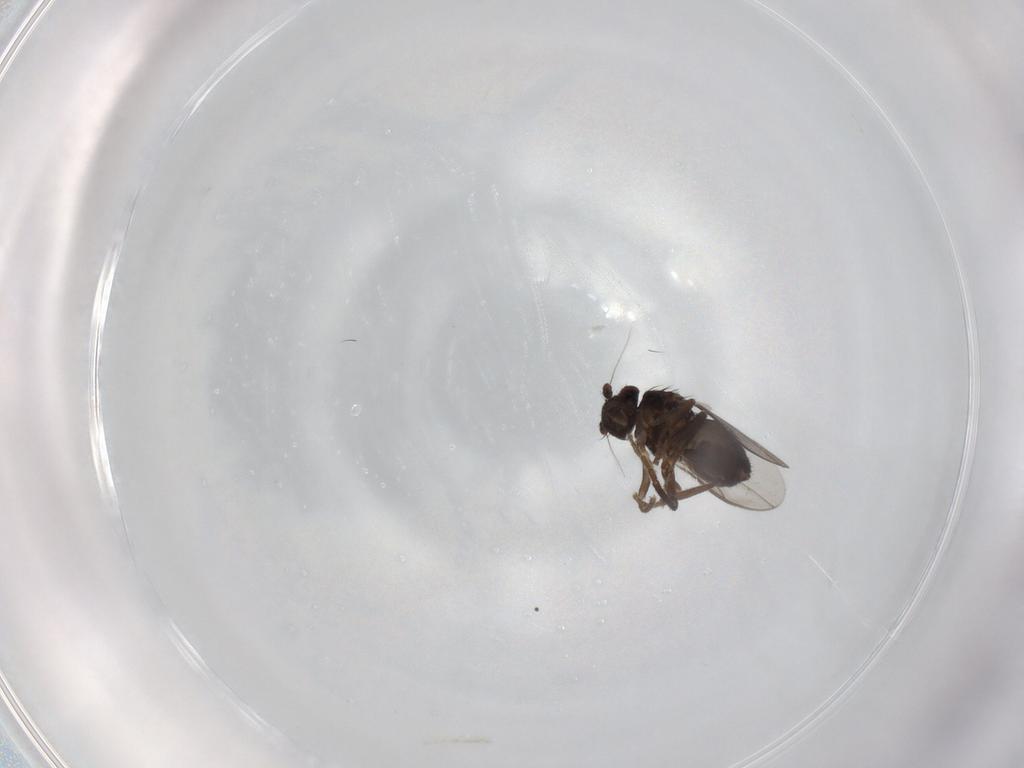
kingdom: Animalia
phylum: Arthropoda
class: Insecta
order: Diptera
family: Sphaeroceridae
